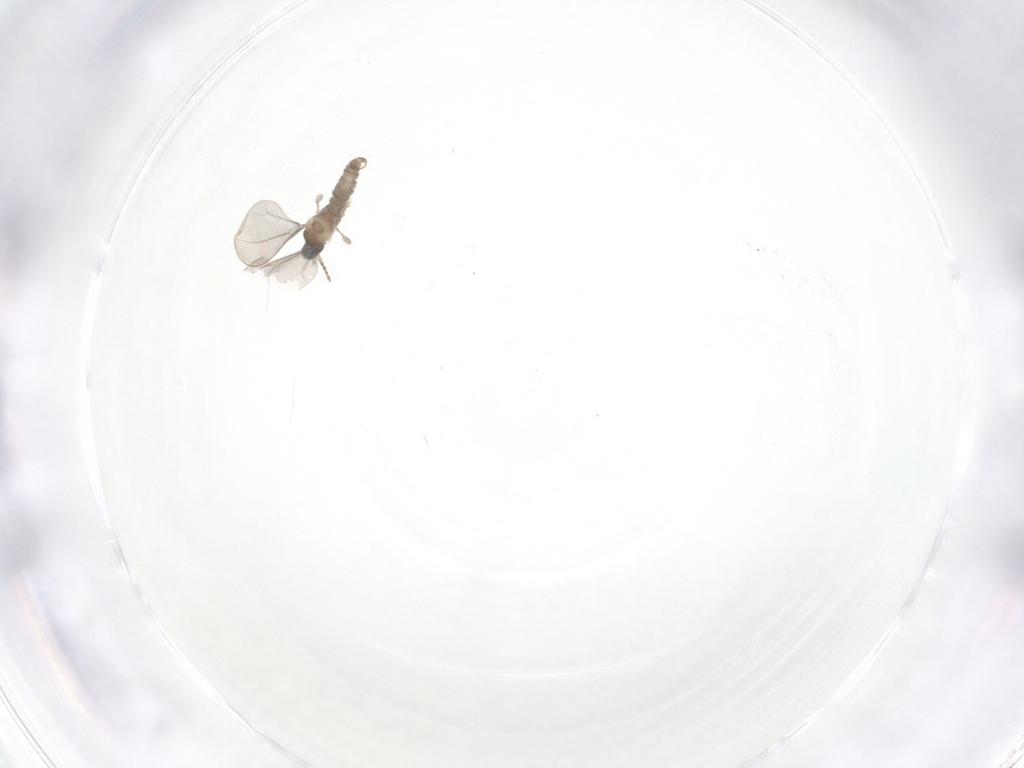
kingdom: Animalia
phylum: Arthropoda
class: Insecta
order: Diptera
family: Cecidomyiidae
